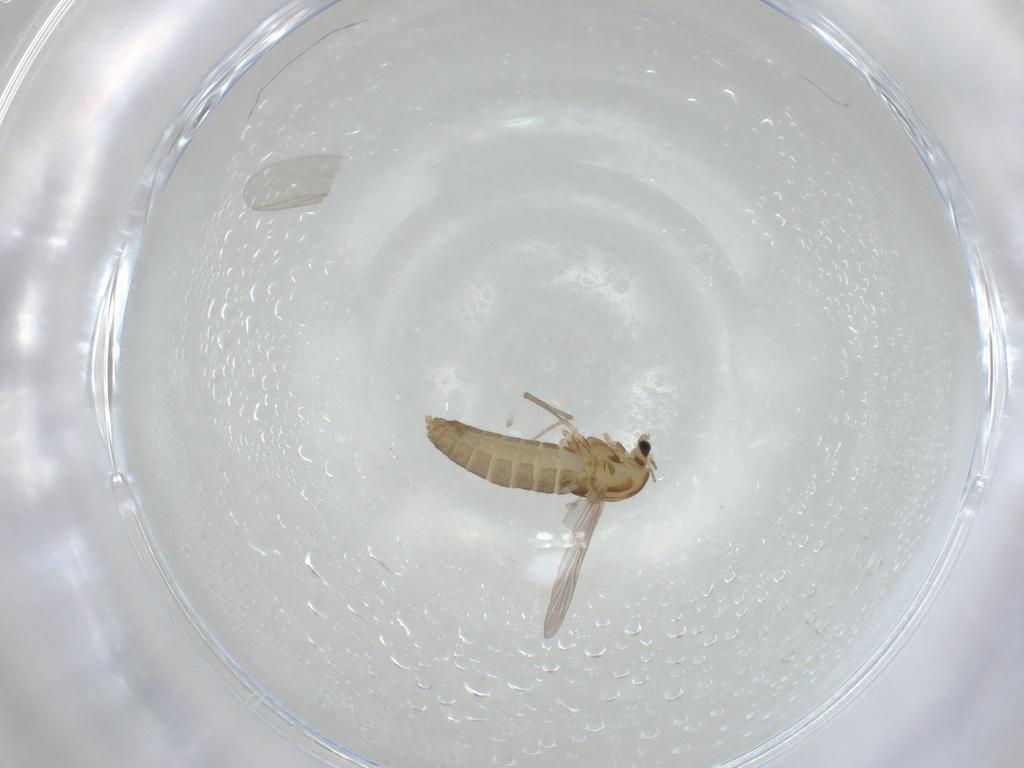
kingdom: Animalia
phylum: Arthropoda
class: Insecta
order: Diptera
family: Chironomidae
